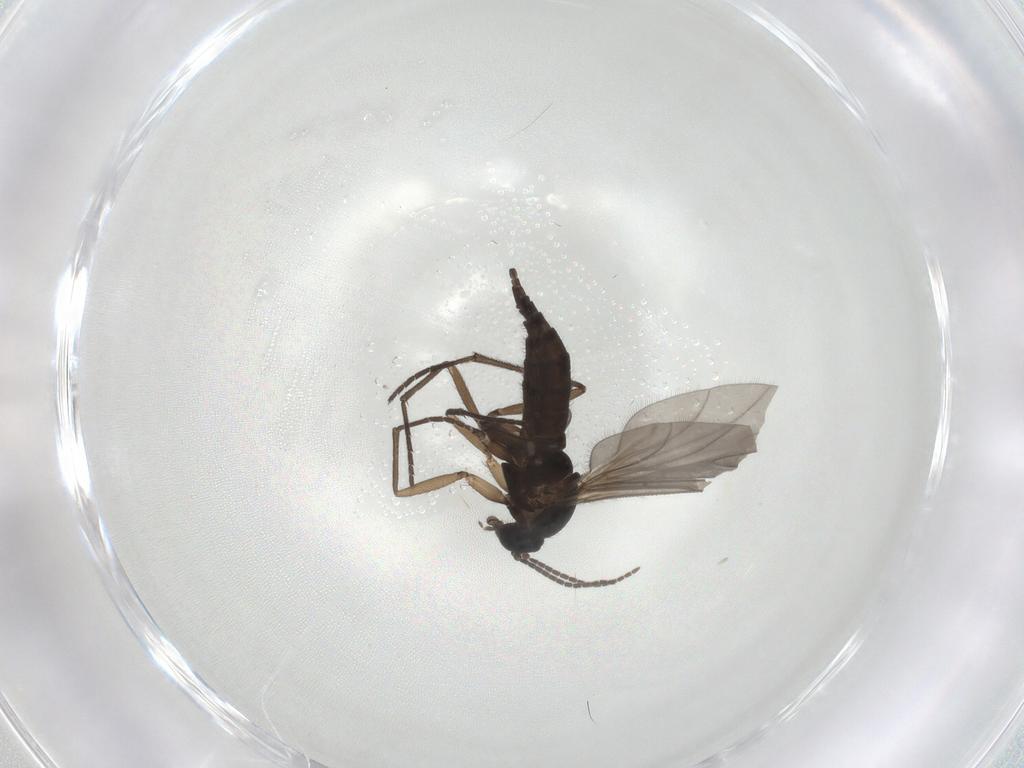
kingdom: Animalia
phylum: Arthropoda
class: Insecta
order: Diptera
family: Sciaridae
